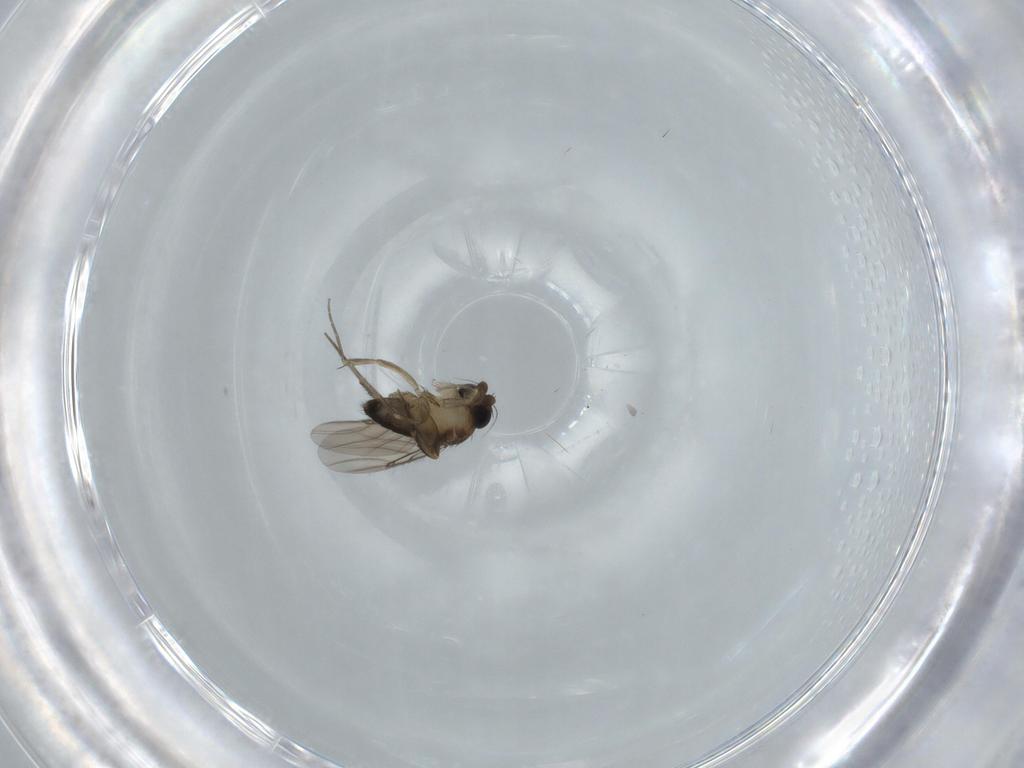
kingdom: Animalia
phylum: Arthropoda
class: Insecta
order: Diptera
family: Phoridae
